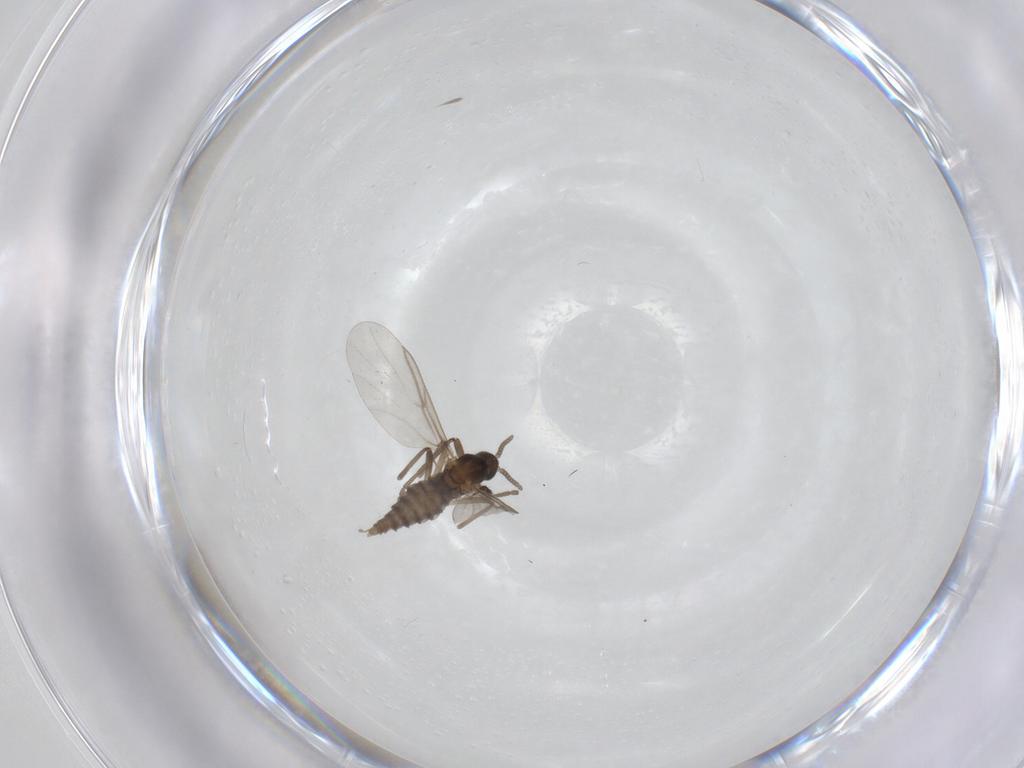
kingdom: Animalia
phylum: Arthropoda
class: Insecta
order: Diptera
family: Cecidomyiidae
